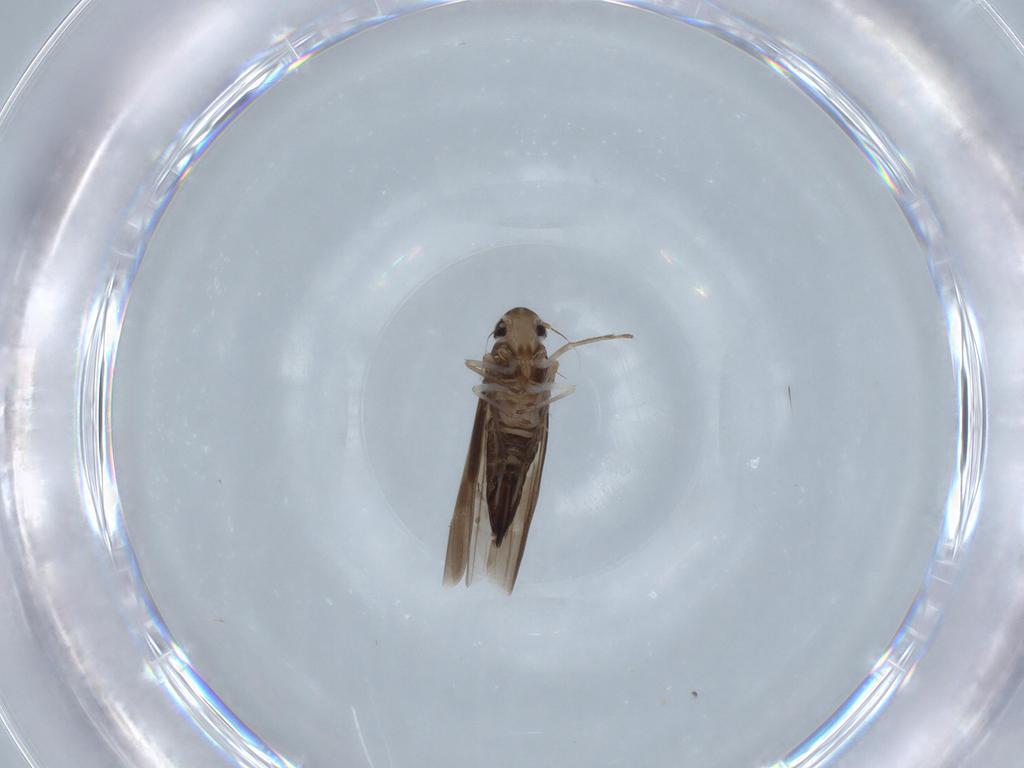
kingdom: Animalia
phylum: Arthropoda
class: Insecta
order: Hemiptera
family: Cicadellidae
